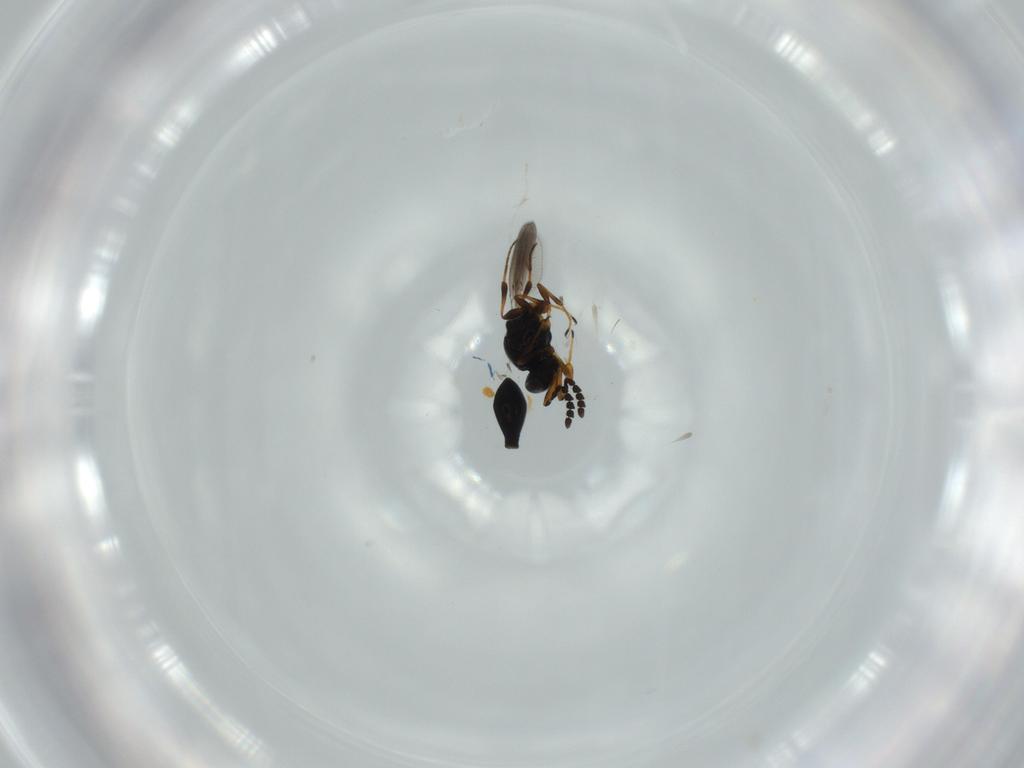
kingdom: Animalia
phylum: Arthropoda
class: Insecta
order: Hymenoptera
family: Platygastridae
